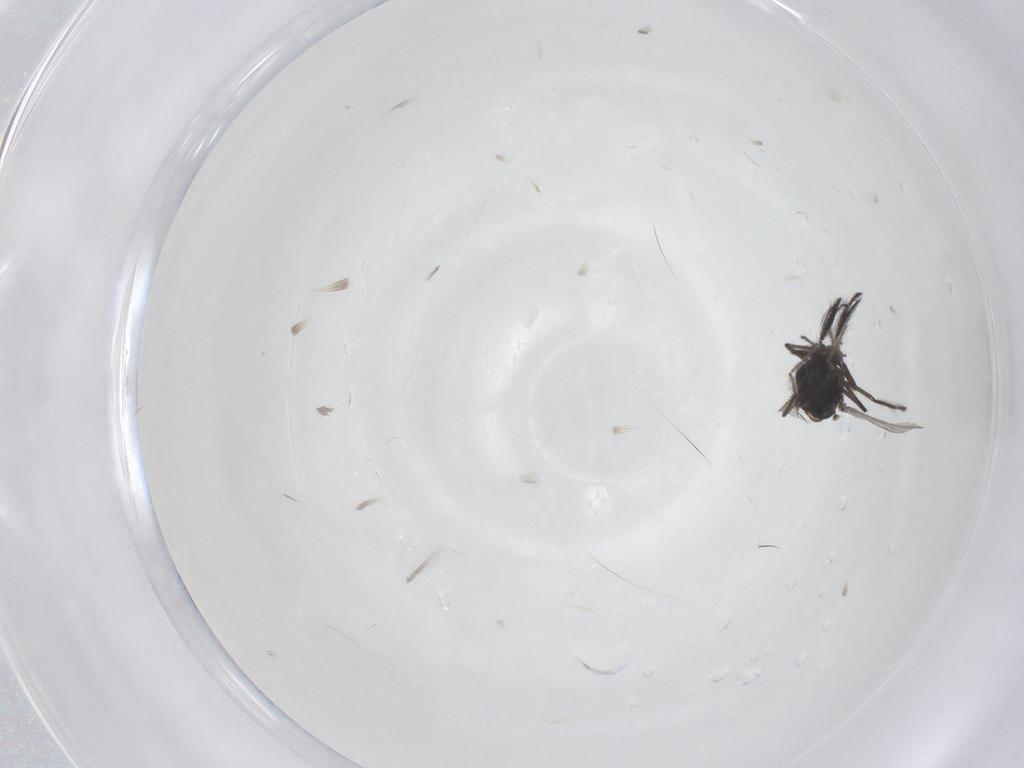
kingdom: Animalia
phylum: Arthropoda
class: Insecta
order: Diptera
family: Ceratopogonidae
